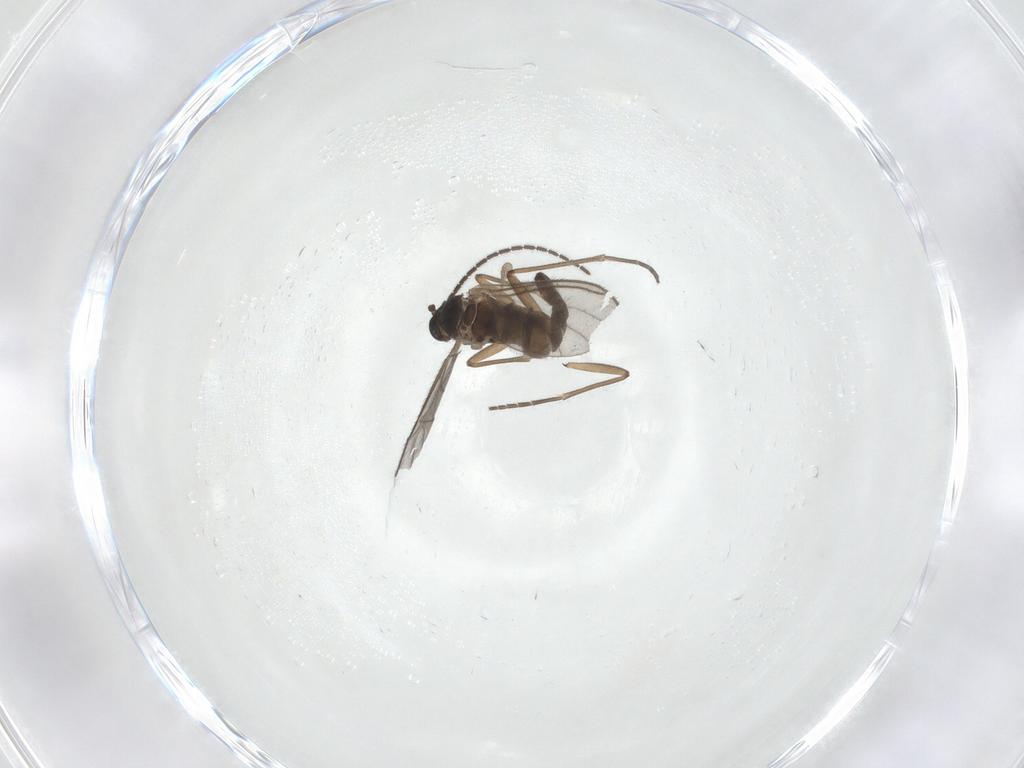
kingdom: Animalia
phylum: Arthropoda
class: Insecta
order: Diptera
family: Sciaridae
